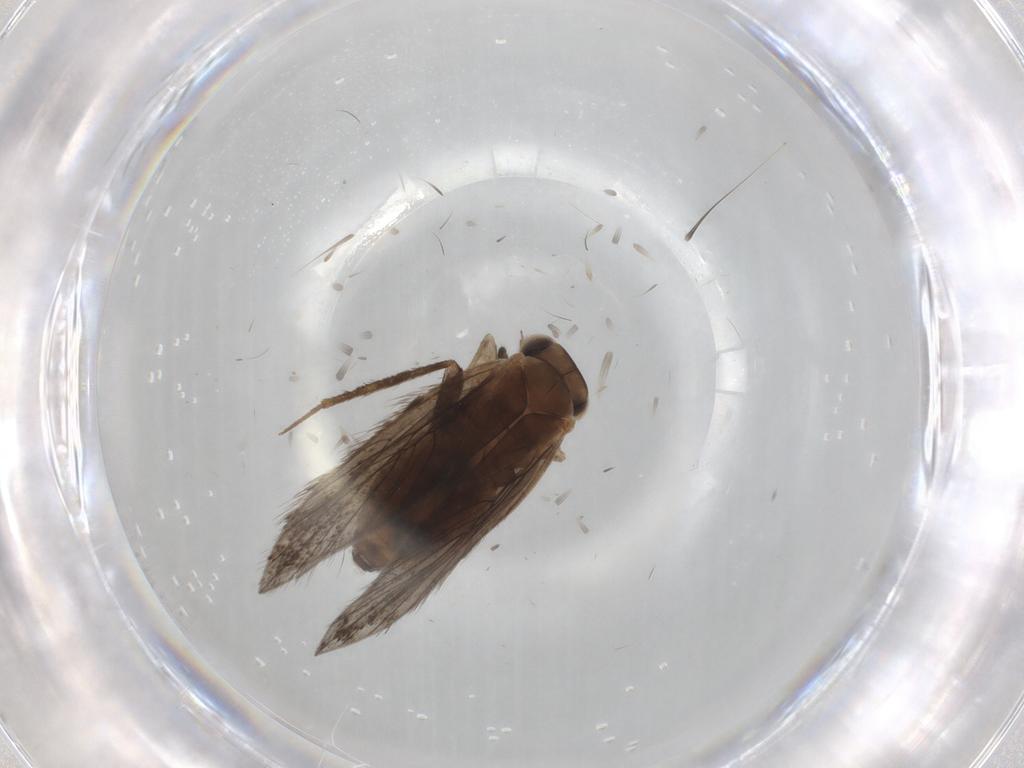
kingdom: Animalia
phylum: Arthropoda
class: Insecta
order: Psocodea
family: Lepidopsocidae
